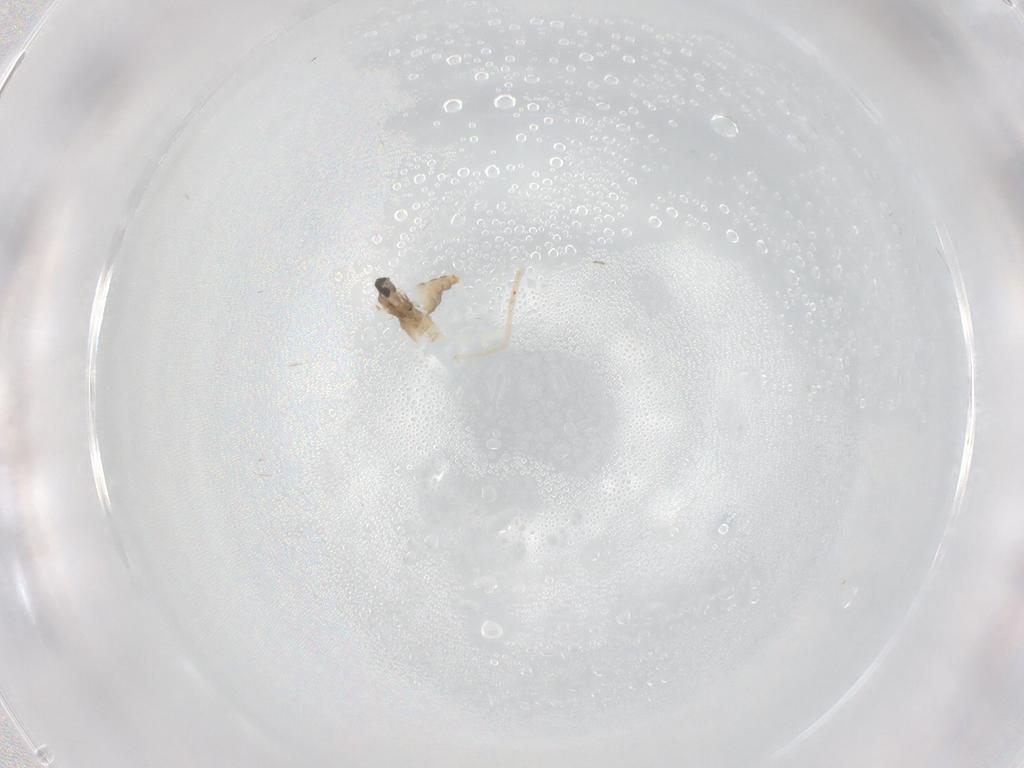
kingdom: Animalia
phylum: Arthropoda
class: Insecta
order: Diptera
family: Cecidomyiidae
